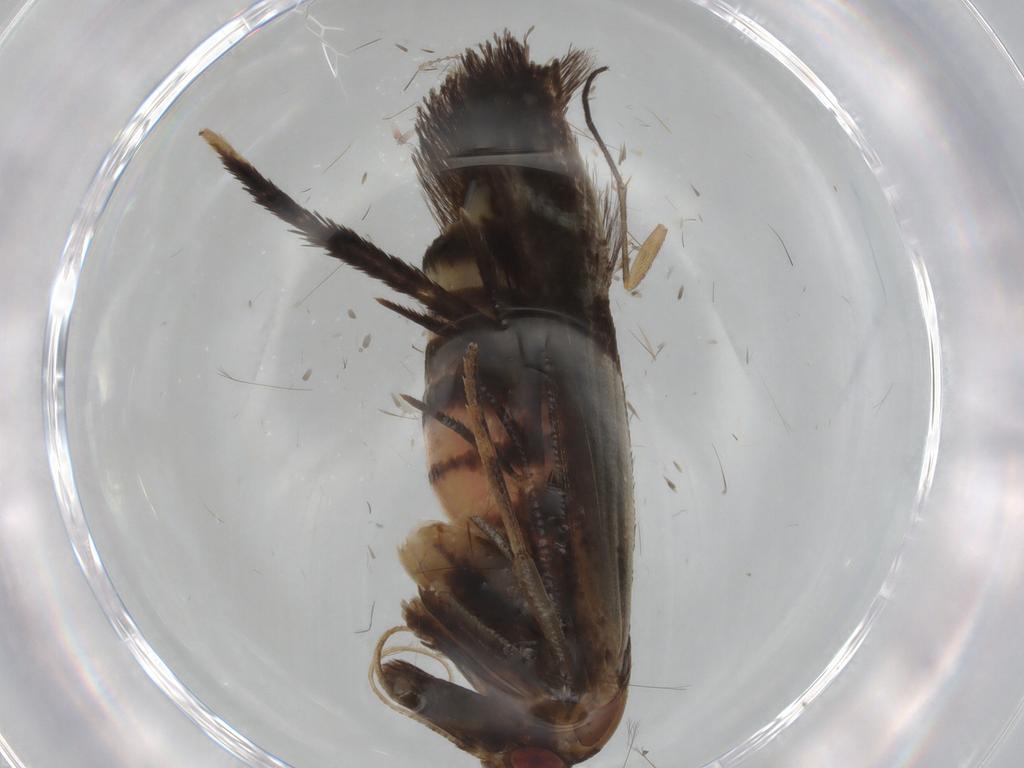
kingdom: Animalia
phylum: Arthropoda
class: Insecta
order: Lepidoptera
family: Cosmopterigidae
